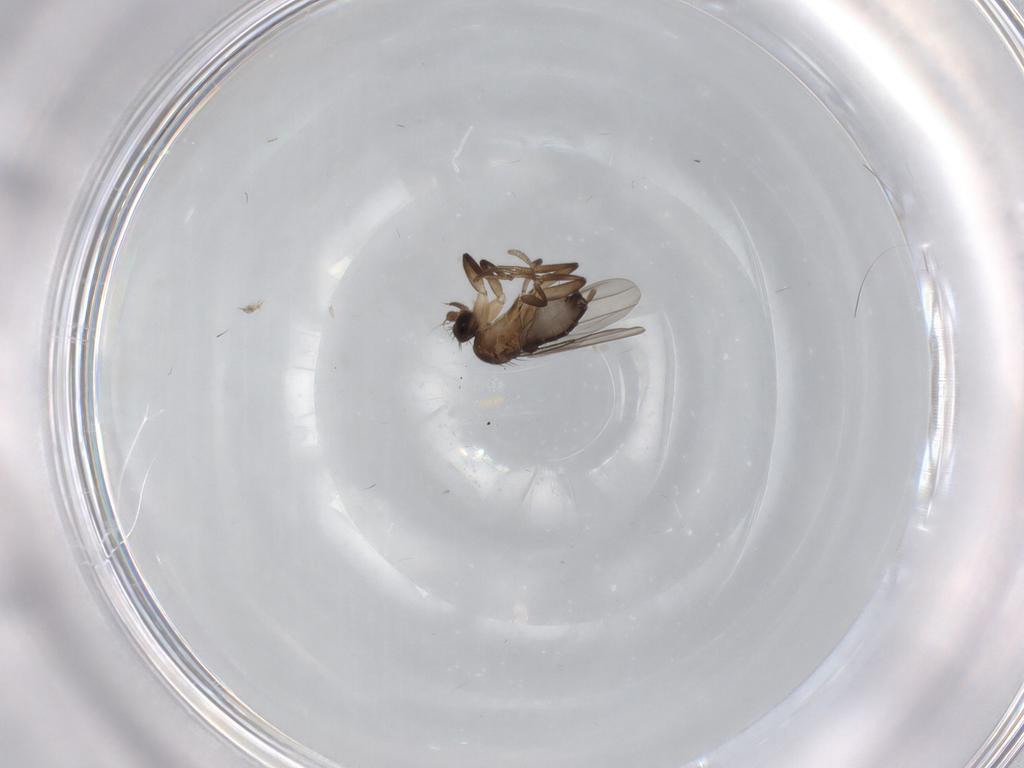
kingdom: Animalia
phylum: Arthropoda
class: Insecta
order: Diptera
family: Phoridae
